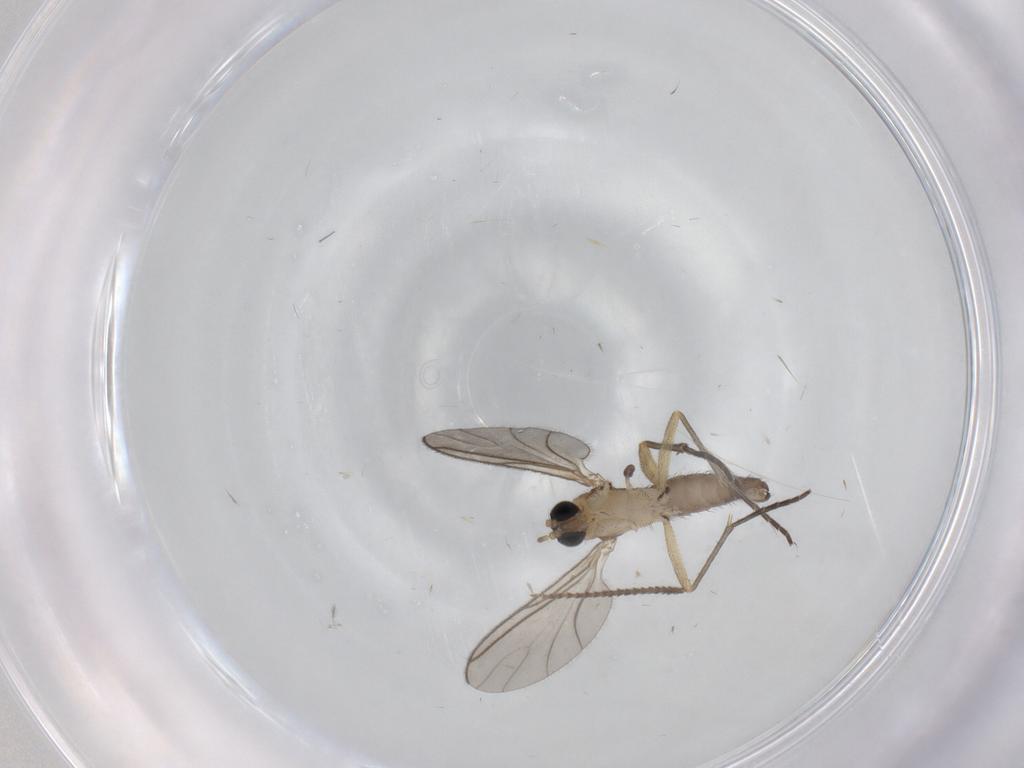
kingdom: Animalia
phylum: Arthropoda
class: Insecta
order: Diptera
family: Sciaridae
